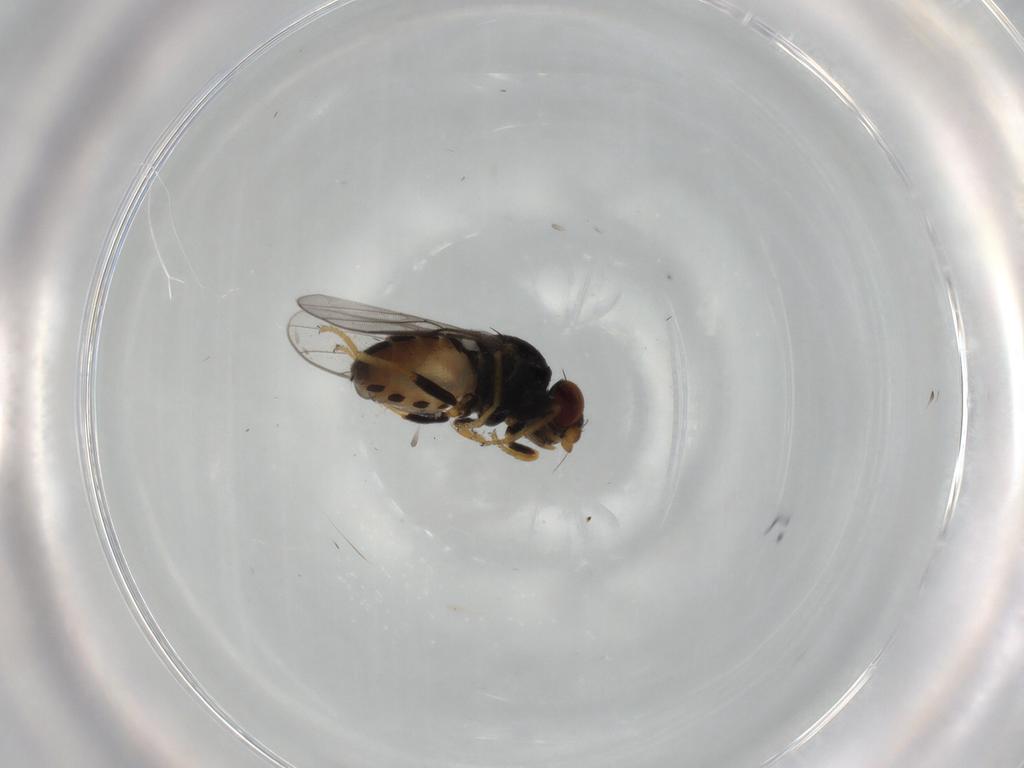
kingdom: Animalia
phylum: Arthropoda
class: Insecta
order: Diptera
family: Chloropidae
